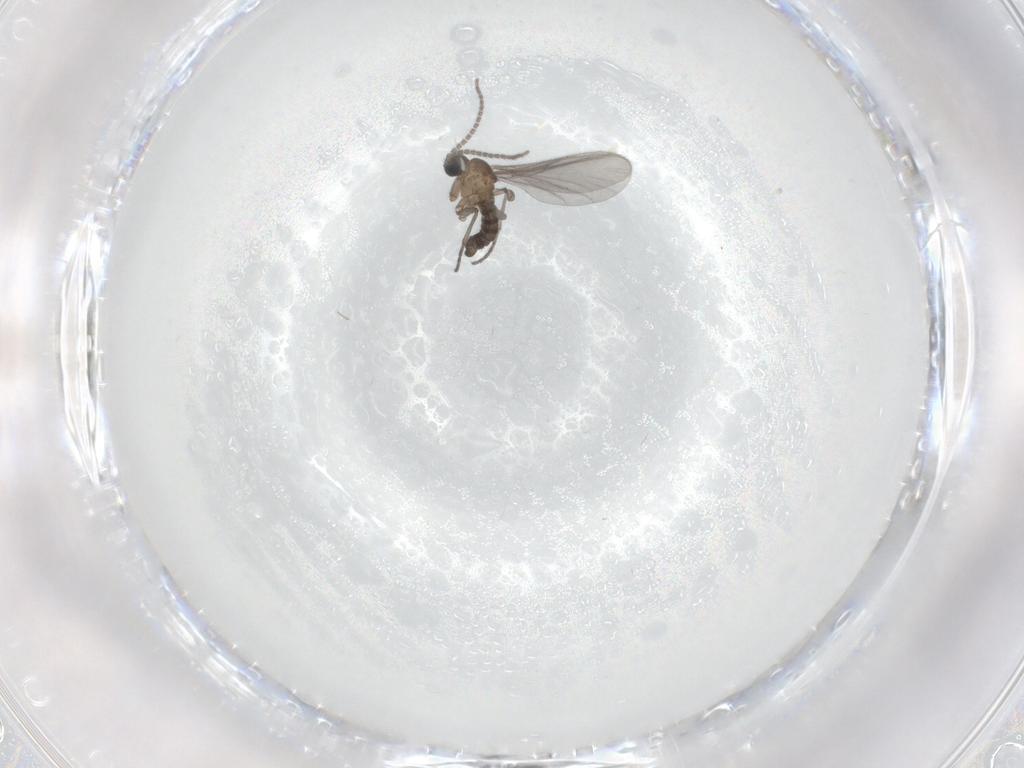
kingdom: Animalia
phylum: Arthropoda
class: Insecta
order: Diptera
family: Sciaridae
